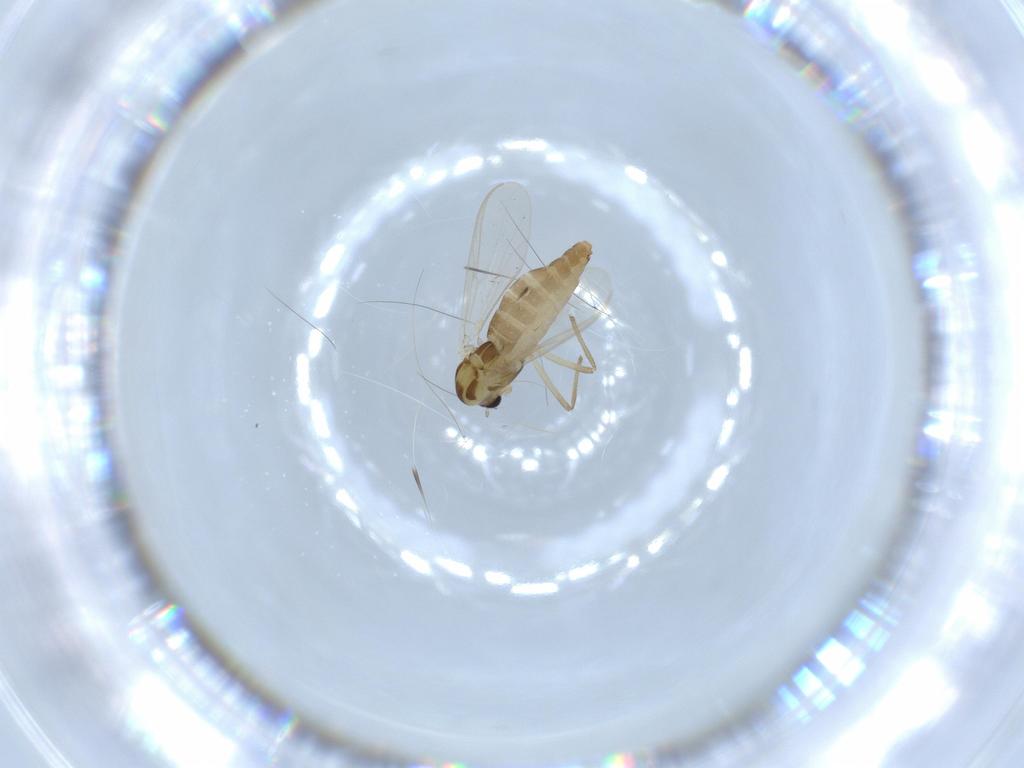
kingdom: Animalia
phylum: Arthropoda
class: Insecta
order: Diptera
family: Chironomidae
